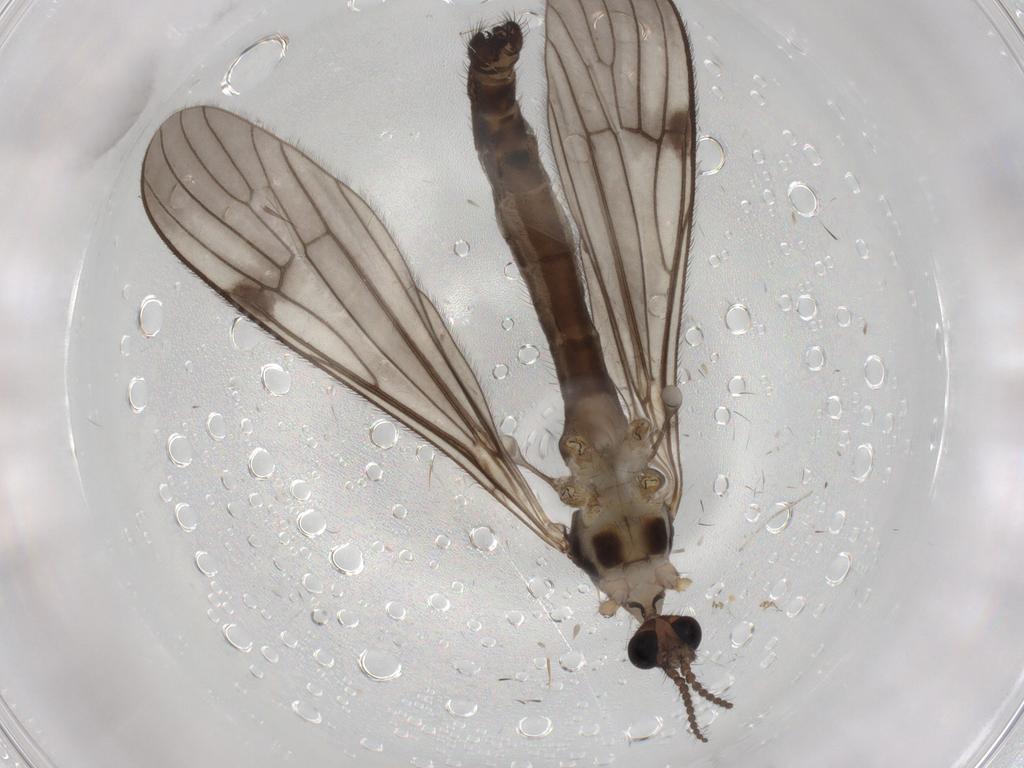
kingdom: Animalia
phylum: Arthropoda
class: Insecta
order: Diptera
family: Limoniidae
